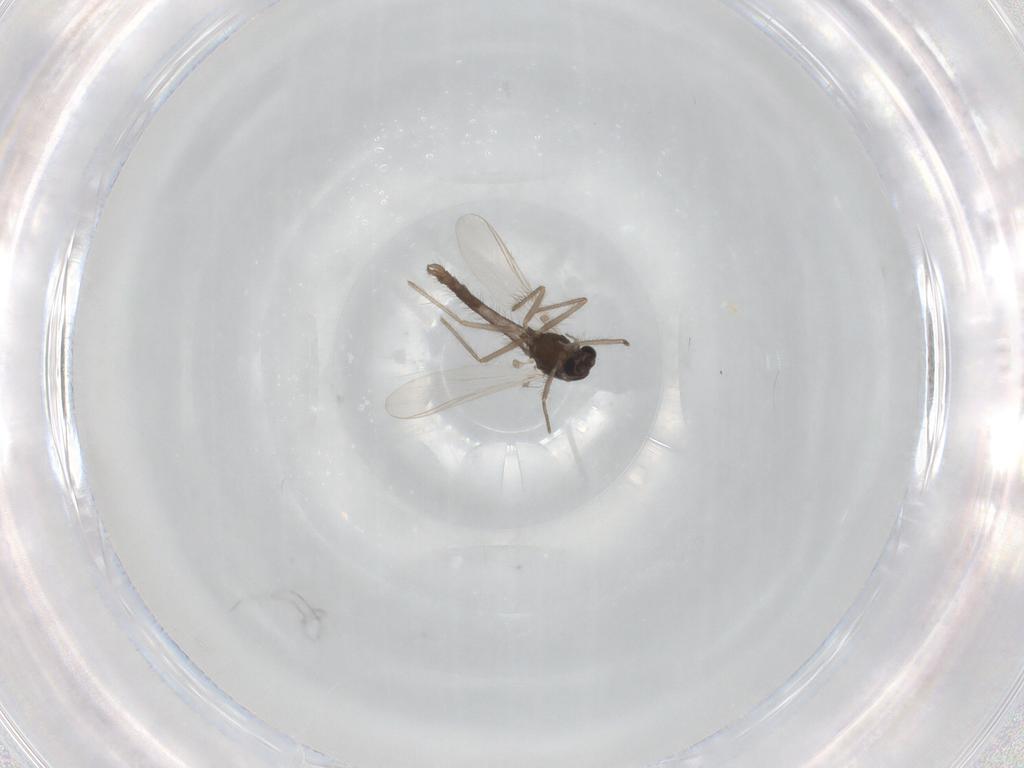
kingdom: Animalia
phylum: Arthropoda
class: Insecta
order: Diptera
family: Chironomidae
